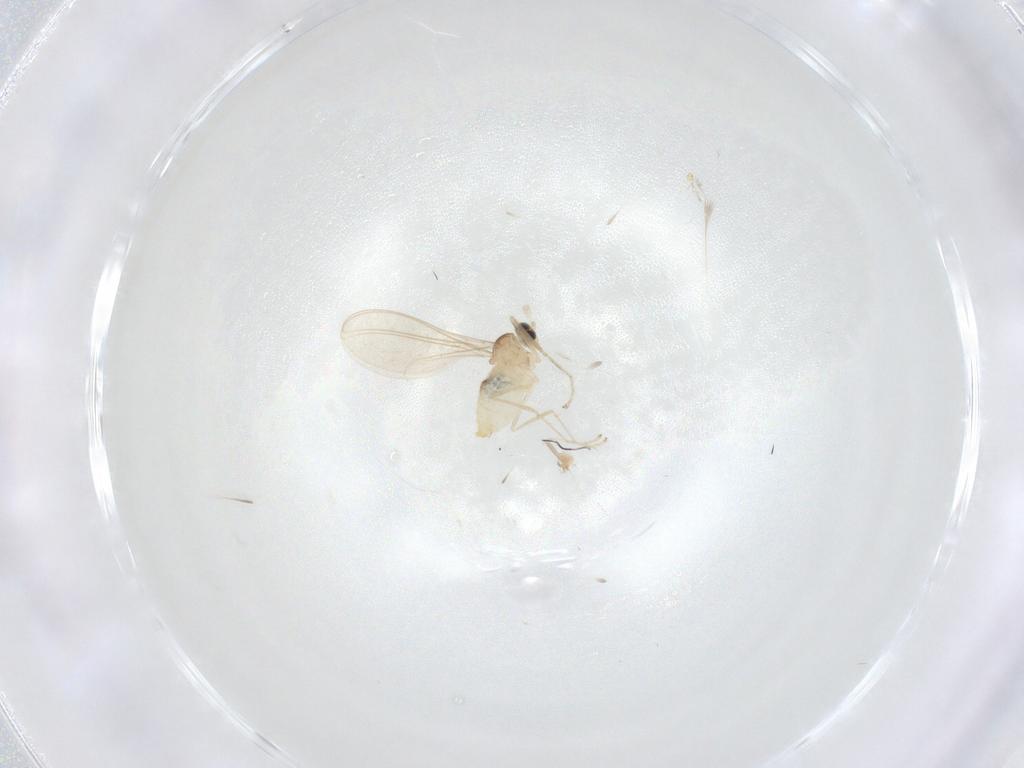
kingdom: Animalia
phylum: Arthropoda
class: Insecta
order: Diptera
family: Cecidomyiidae
